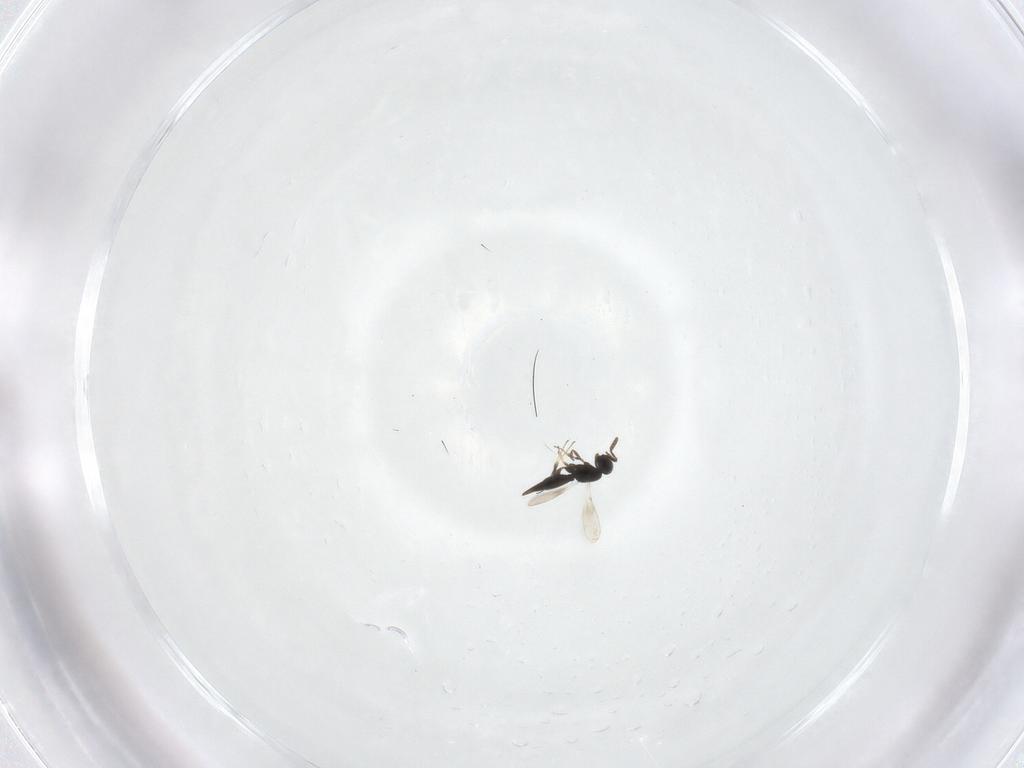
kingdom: Animalia
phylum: Arthropoda
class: Insecta
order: Hymenoptera
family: Scelionidae
